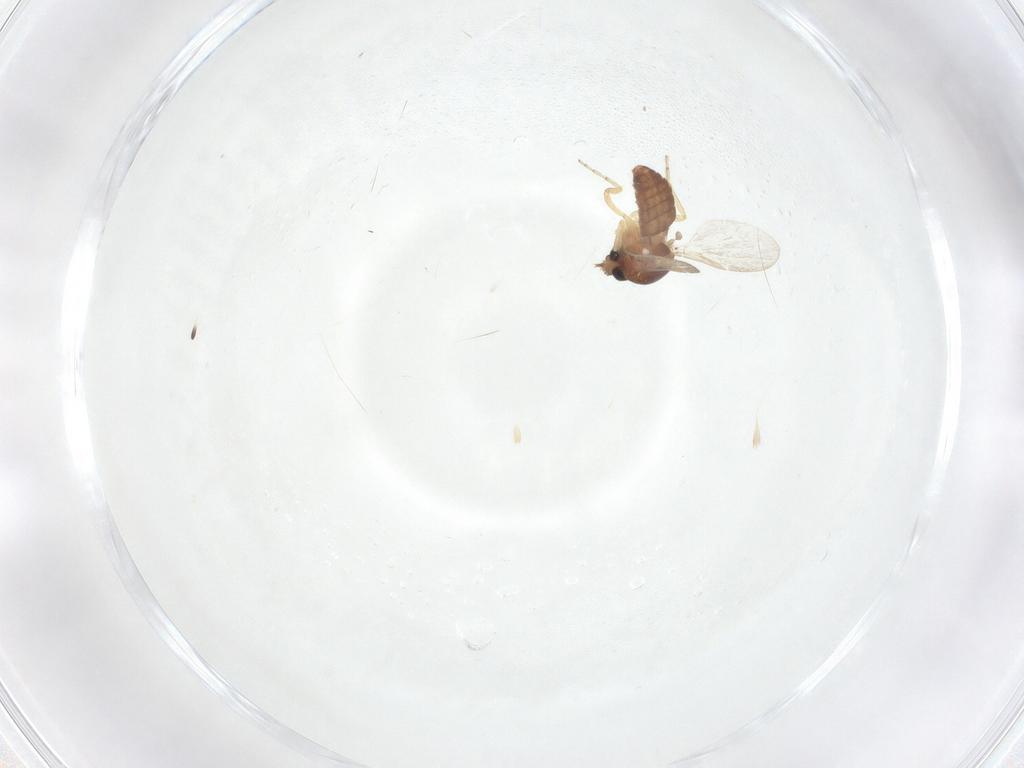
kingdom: Animalia
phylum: Arthropoda
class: Insecta
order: Diptera
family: Ceratopogonidae
